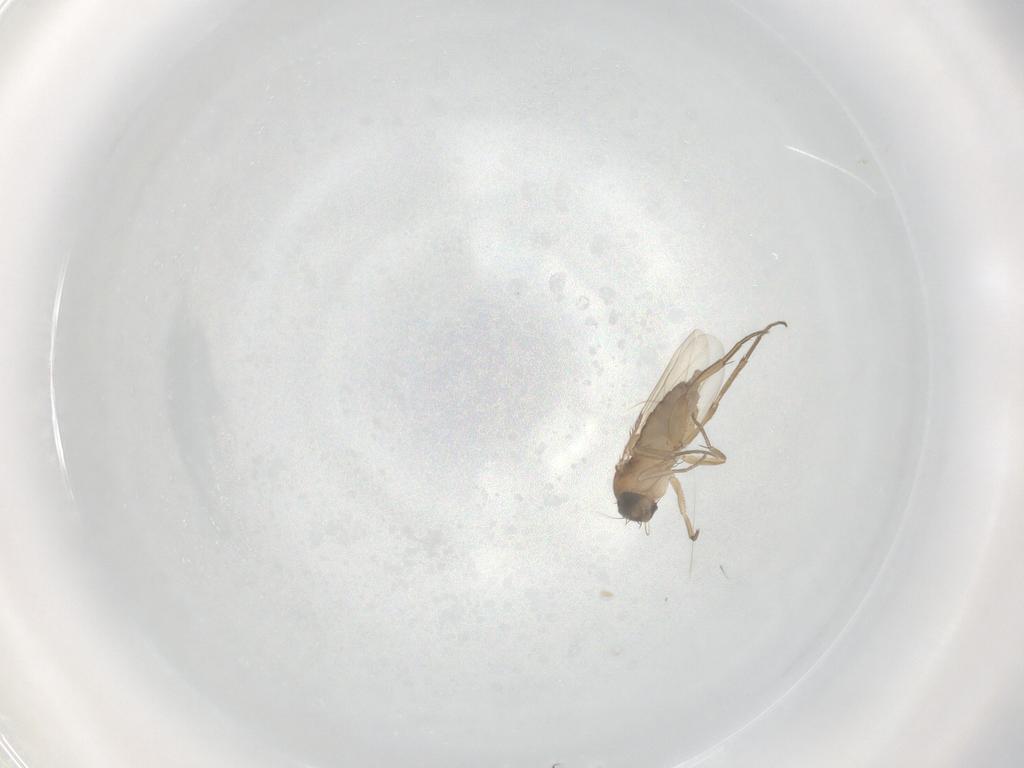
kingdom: Animalia
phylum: Arthropoda
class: Insecta
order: Diptera
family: Phoridae
